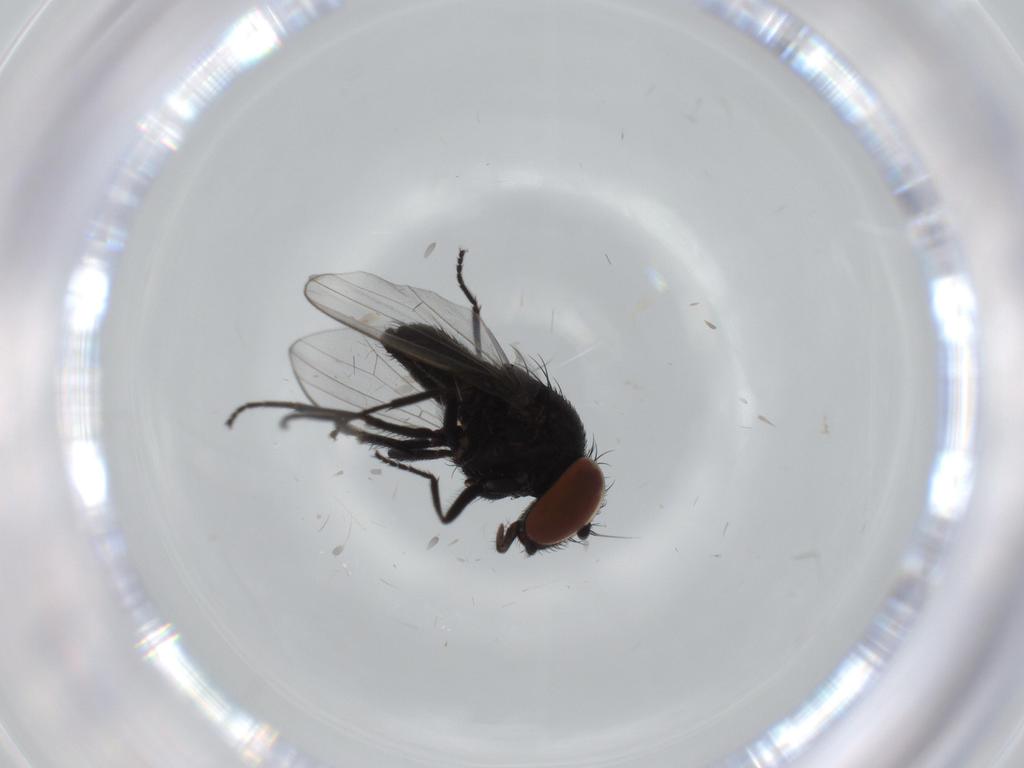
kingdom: Animalia
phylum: Arthropoda
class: Insecta
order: Diptera
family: Milichiidae
